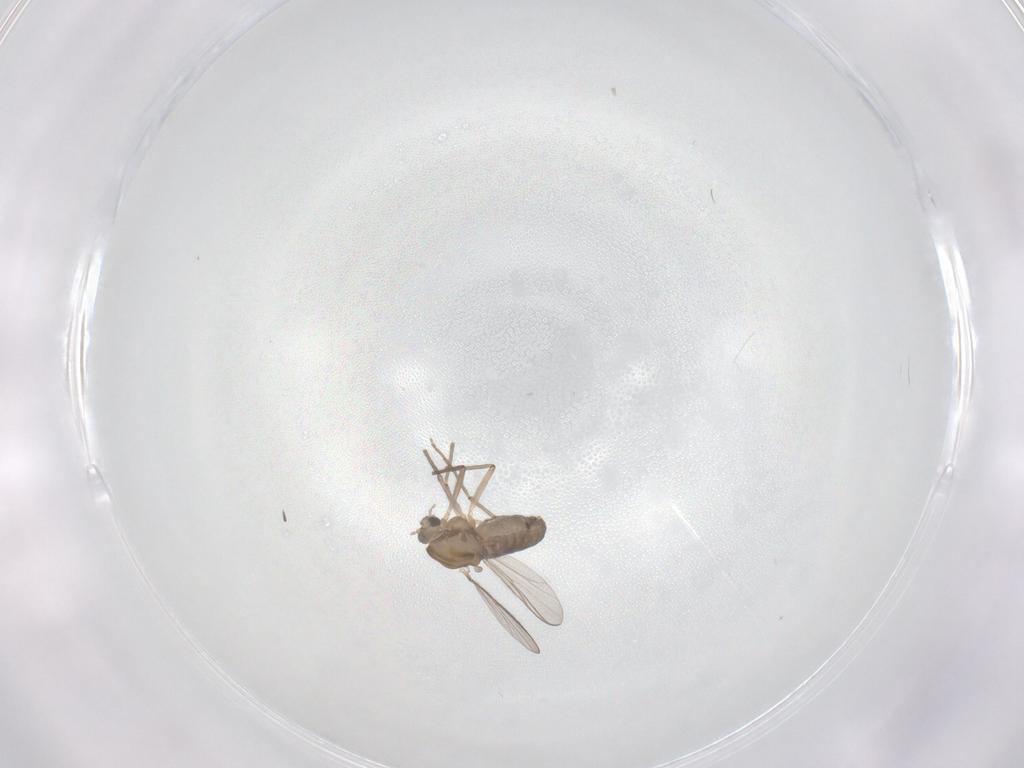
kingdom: Animalia
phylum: Arthropoda
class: Insecta
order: Diptera
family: Chironomidae
